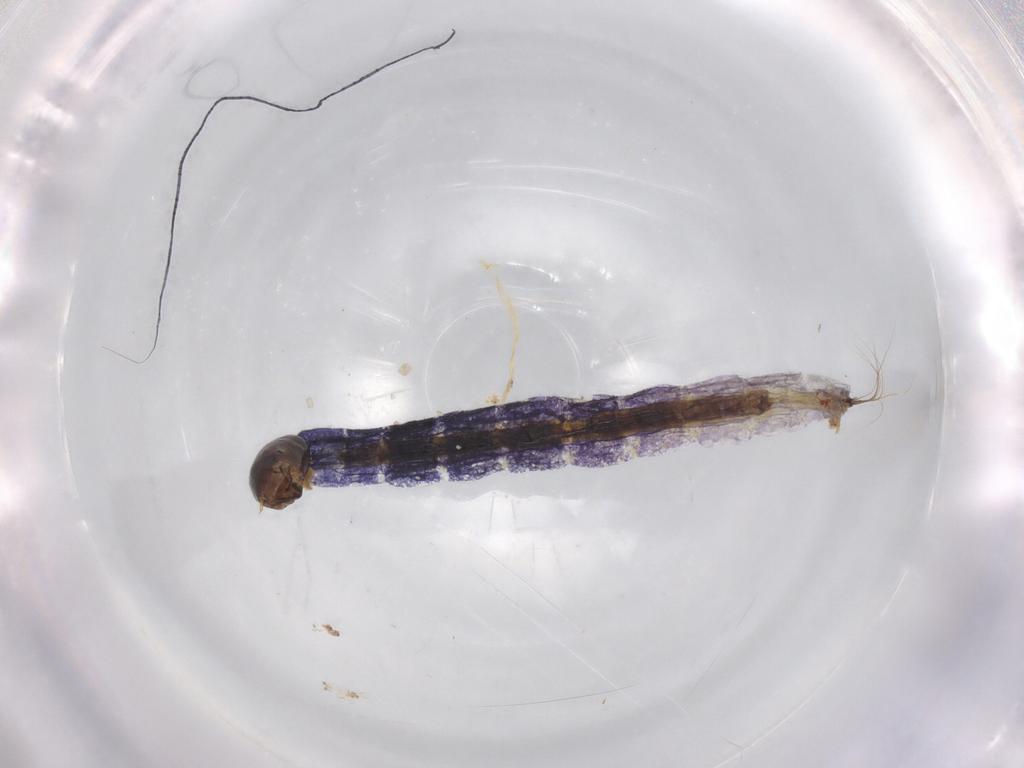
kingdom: Animalia
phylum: Arthropoda
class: Insecta
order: Diptera
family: Chironomidae
